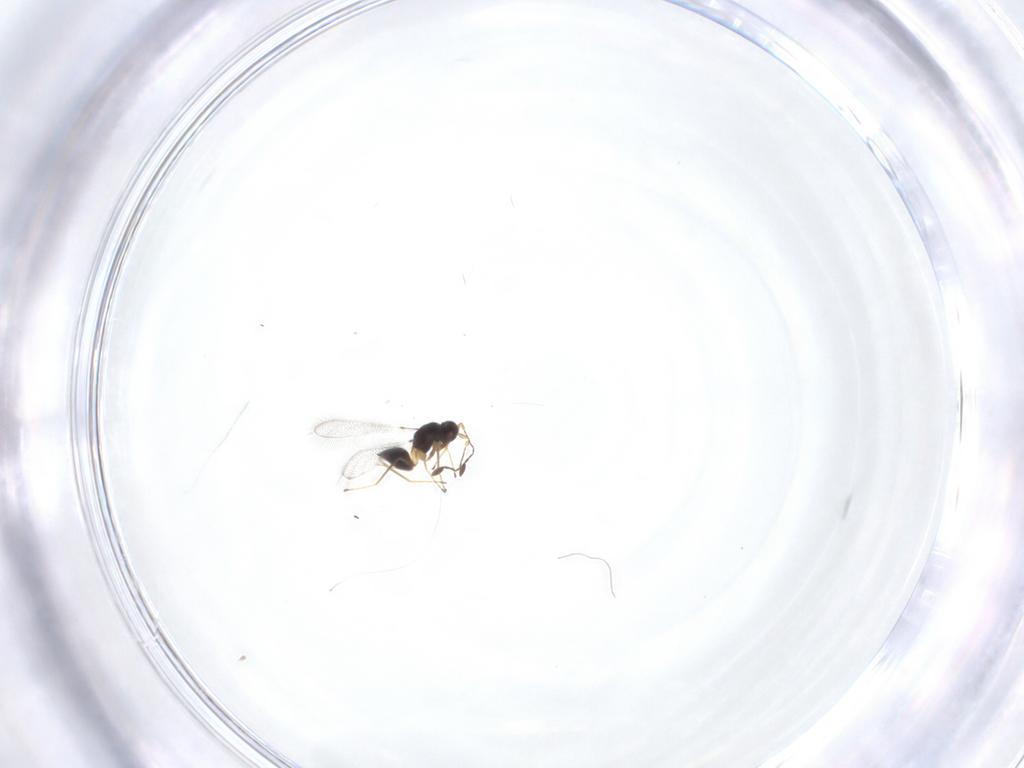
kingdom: Animalia
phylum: Arthropoda
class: Insecta
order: Hymenoptera
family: Mymaridae
